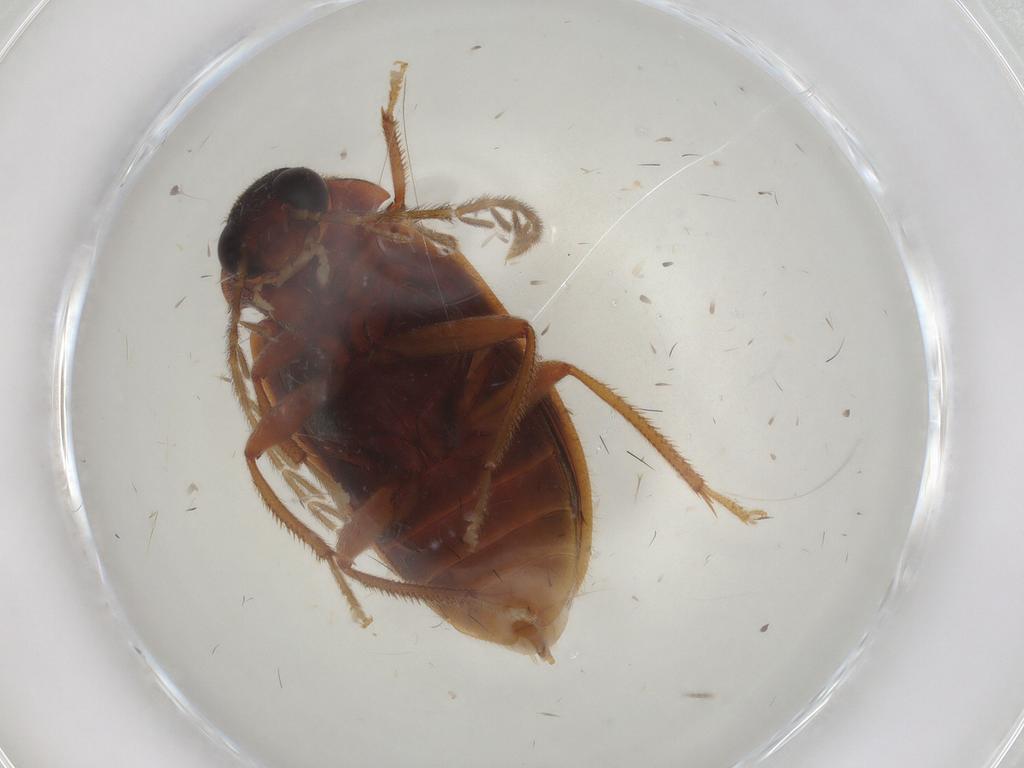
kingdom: Animalia
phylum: Arthropoda
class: Insecta
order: Coleoptera
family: Ptilodactylidae
